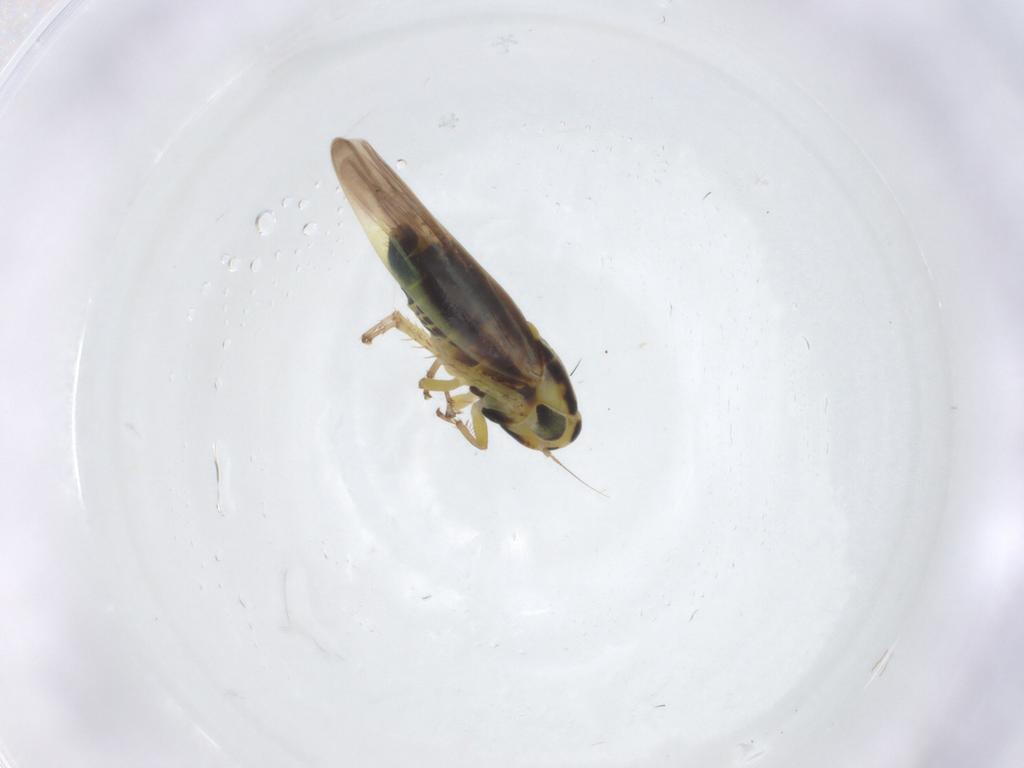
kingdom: Animalia
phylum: Arthropoda
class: Insecta
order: Hemiptera
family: Cicadellidae
